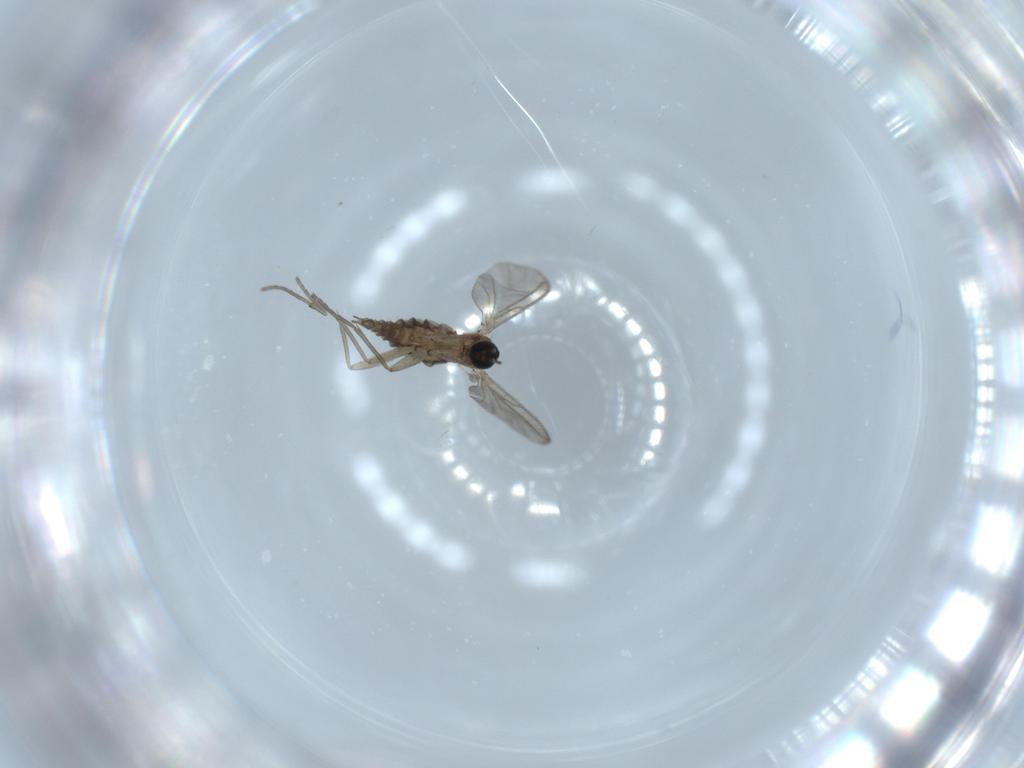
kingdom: Animalia
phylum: Arthropoda
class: Insecta
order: Diptera
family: Sciaridae
